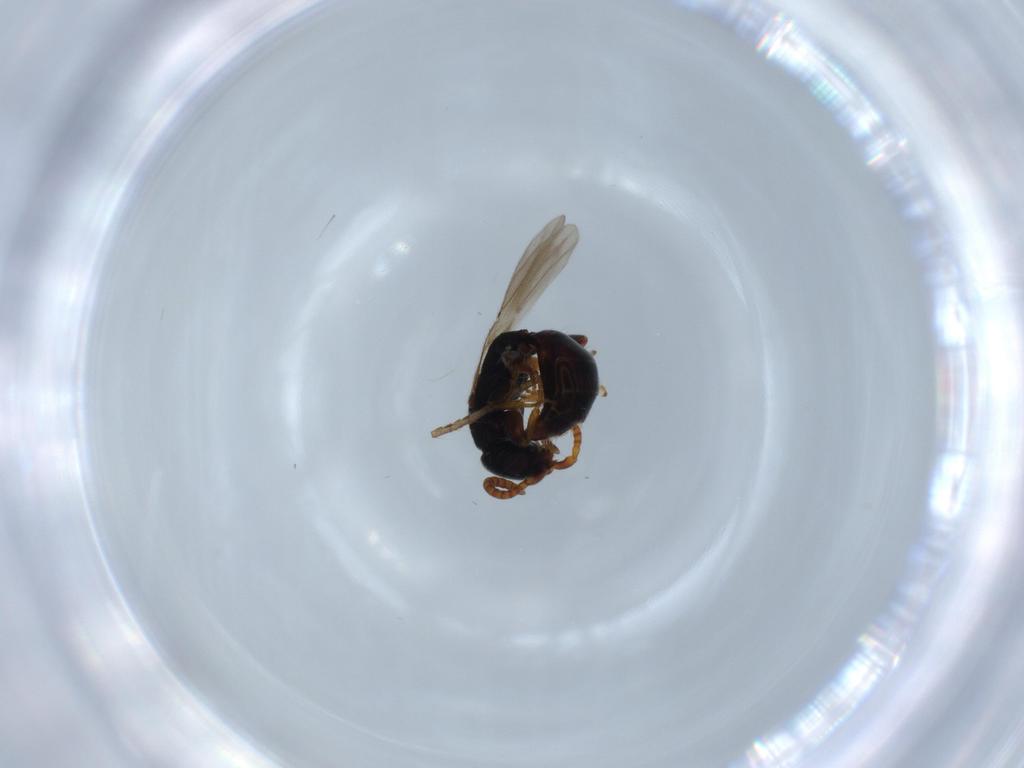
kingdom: Animalia
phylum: Arthropoda
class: Insecta
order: Hymenoptera
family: Bethylidae
